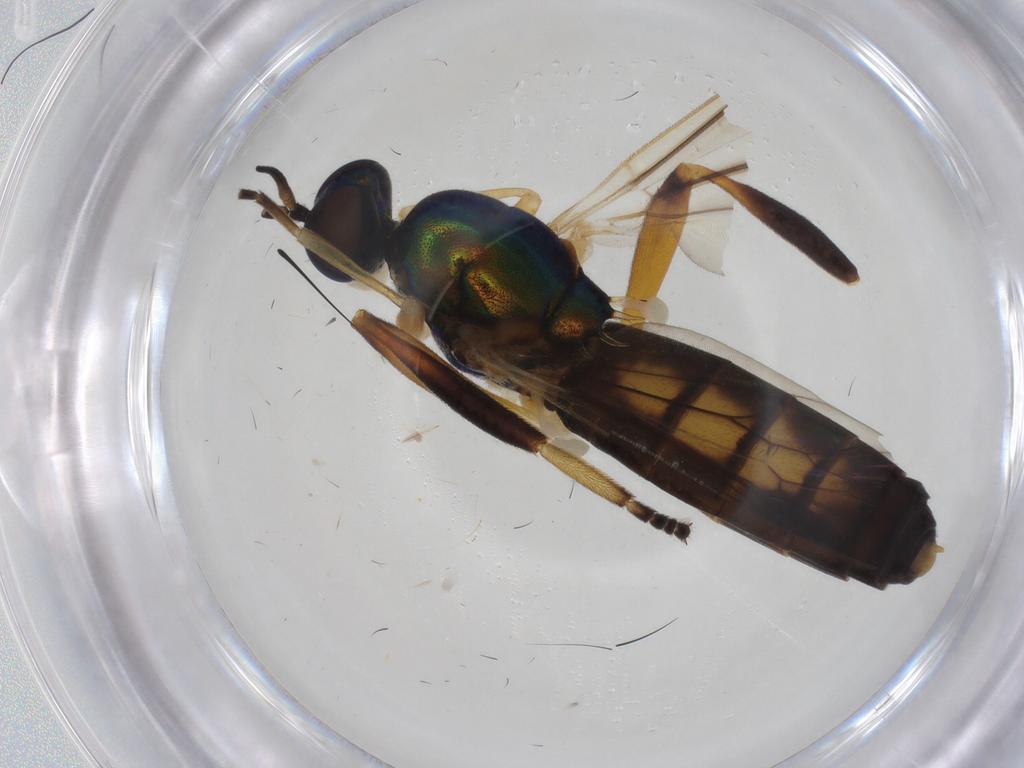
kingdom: Animalia
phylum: Arthropoda
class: Insecta
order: Diptera
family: Stratiomyidae
